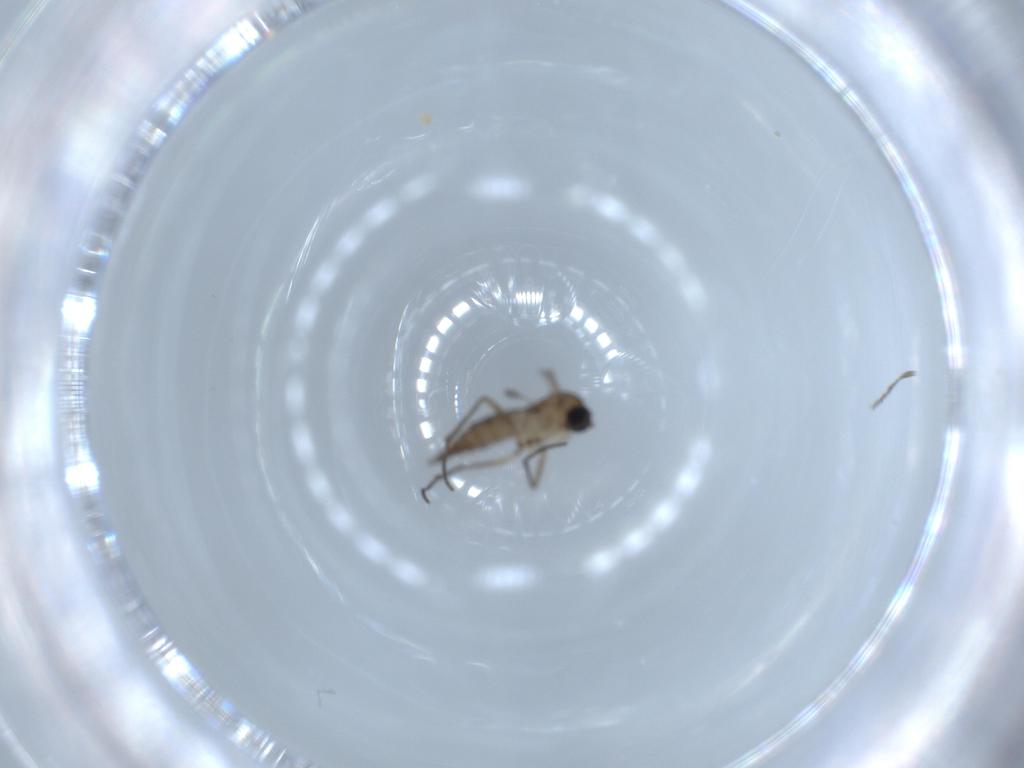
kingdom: Animalia
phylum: Arthropoda
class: Insecta
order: Diptera
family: Sciaridae
